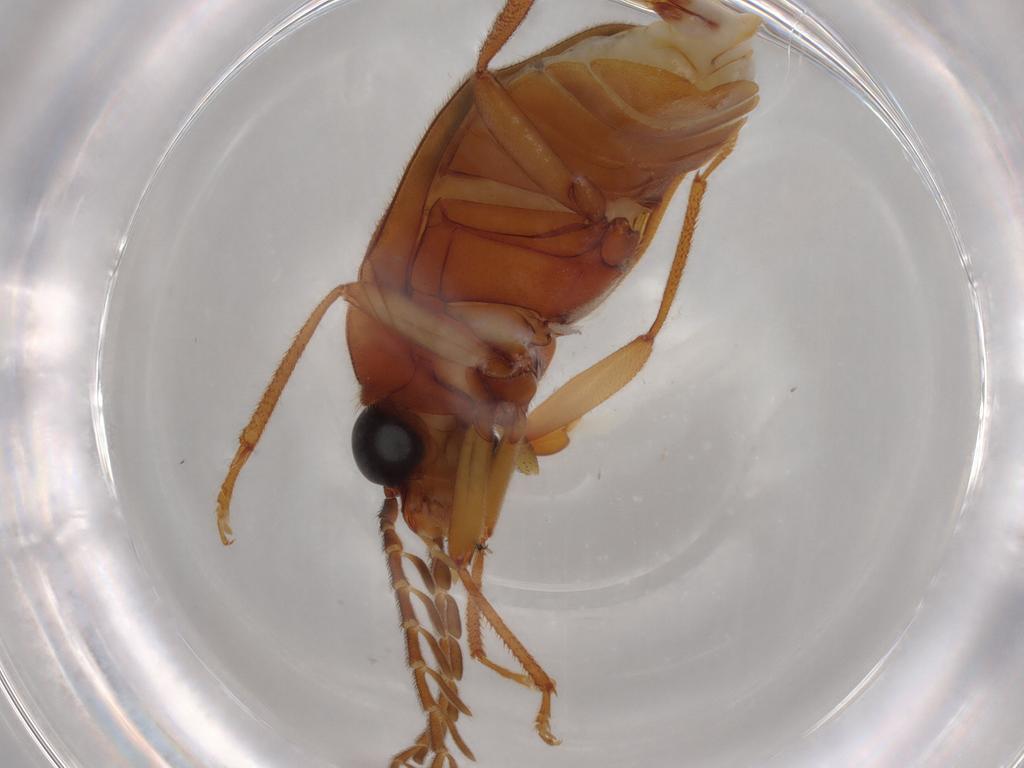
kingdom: Animalia
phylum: Arthropoda
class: Insecta
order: Coleoptera
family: Ptilodactylidae
